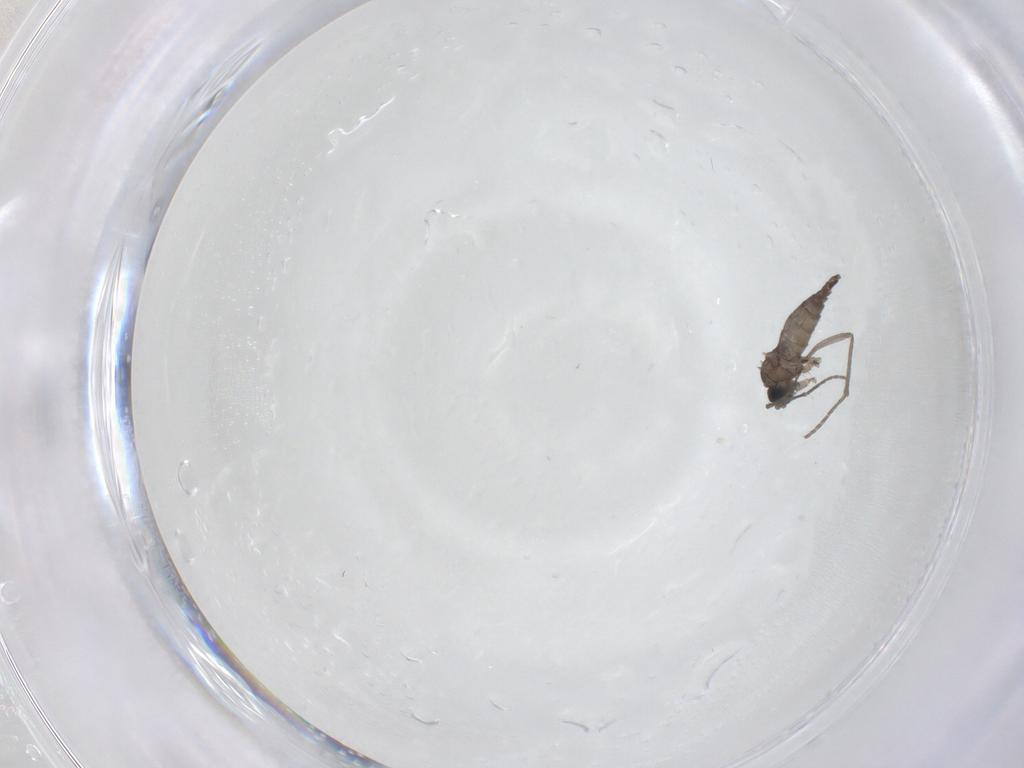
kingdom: Animalia
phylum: Arthropoda
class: Insecta
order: Diptera
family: Sciaridae
